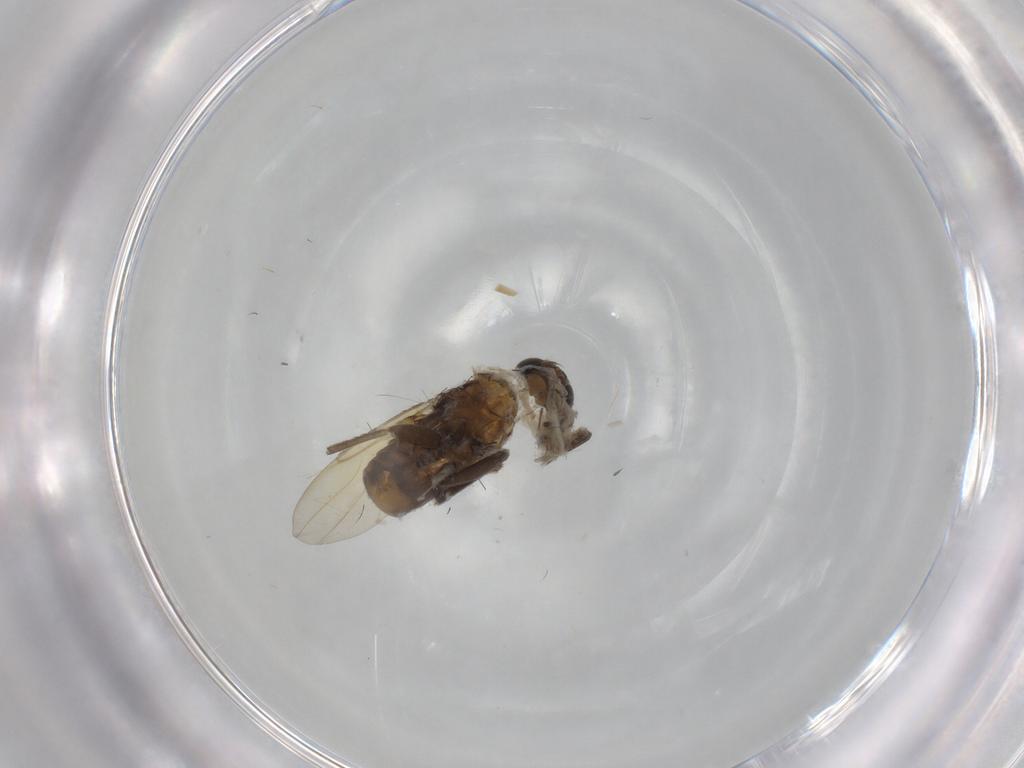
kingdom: Animalia
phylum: Arthropoda
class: Insecta
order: Diptera
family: Cecidomyiidae
